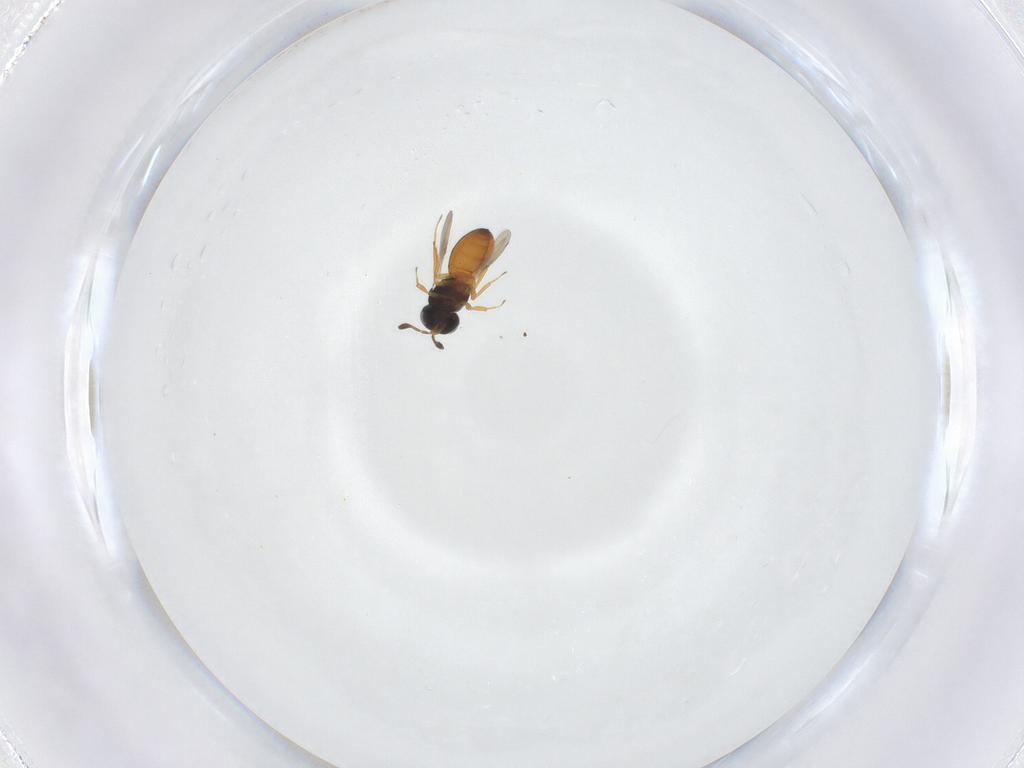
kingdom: Animalia
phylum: Arthropoda
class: Insecta
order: Hymenoptera
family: Scelionidae
